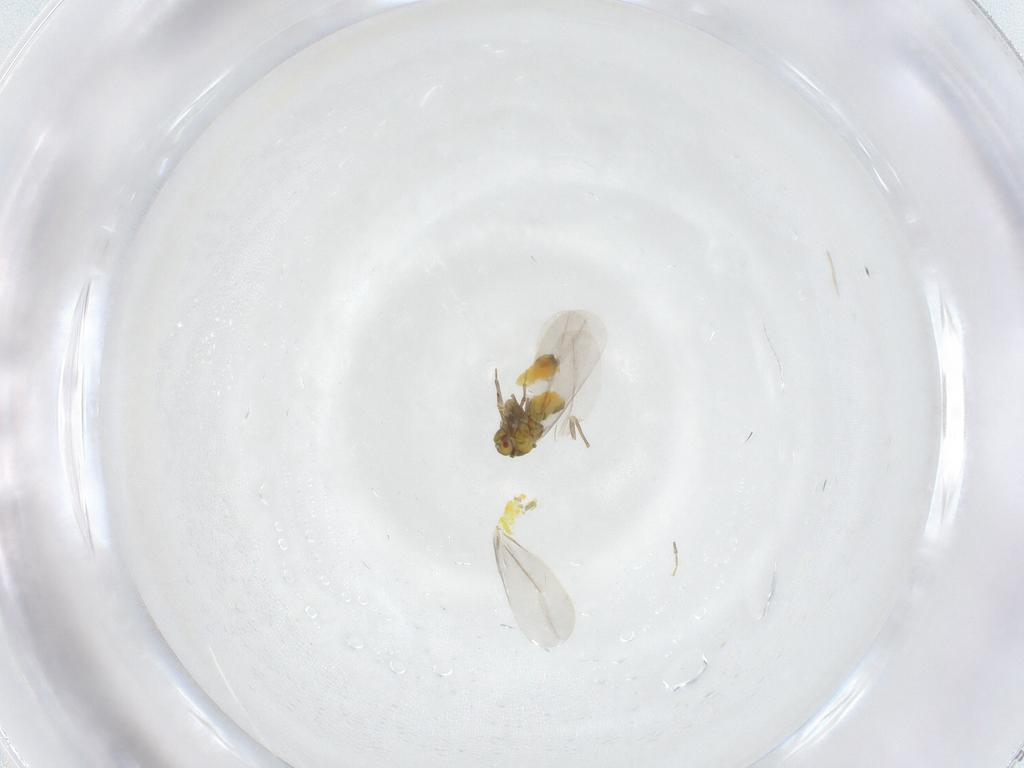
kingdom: Animalia
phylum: Arthropoda
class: Insecta
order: Hemiptera
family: Aleyrodidae
